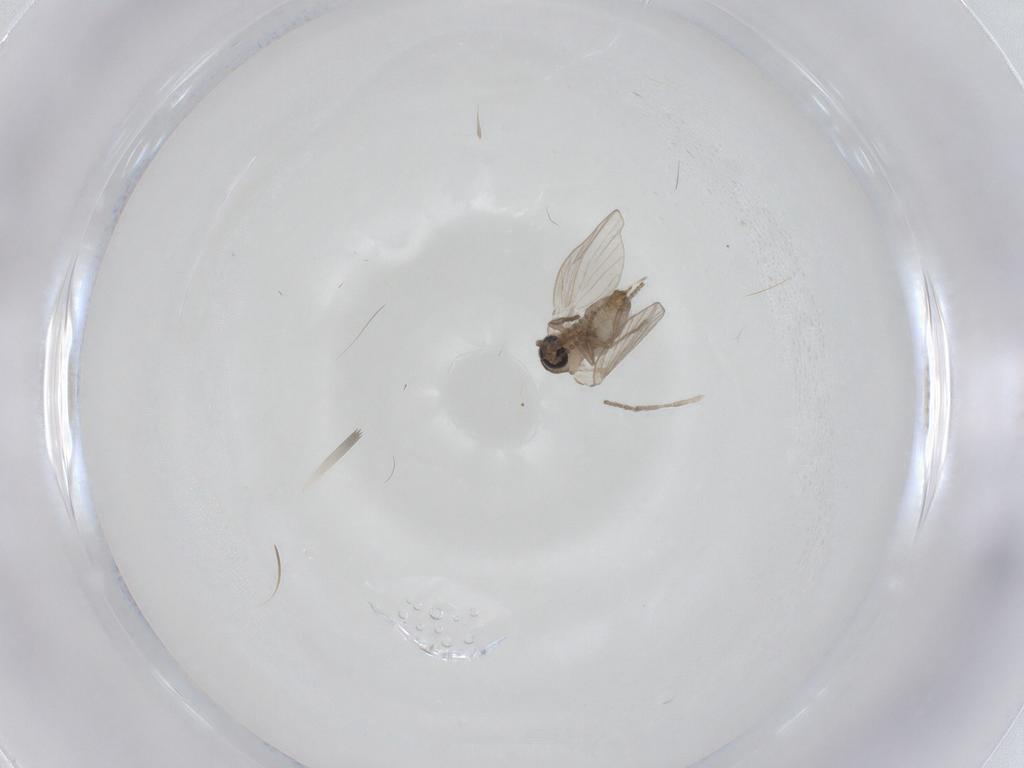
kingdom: Animalia
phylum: Arthropoda
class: Insecta
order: Diptera
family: Psychodidae
